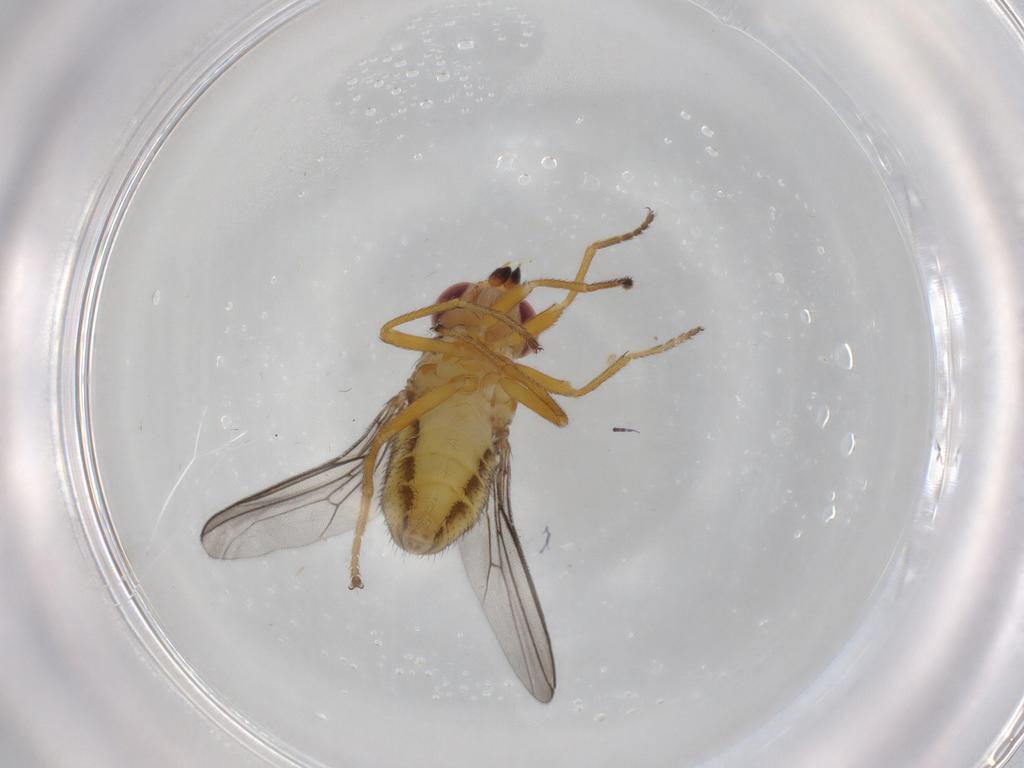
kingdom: Animalia
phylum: Arthropoda
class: Insecta
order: Diptera
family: Chloropidae
